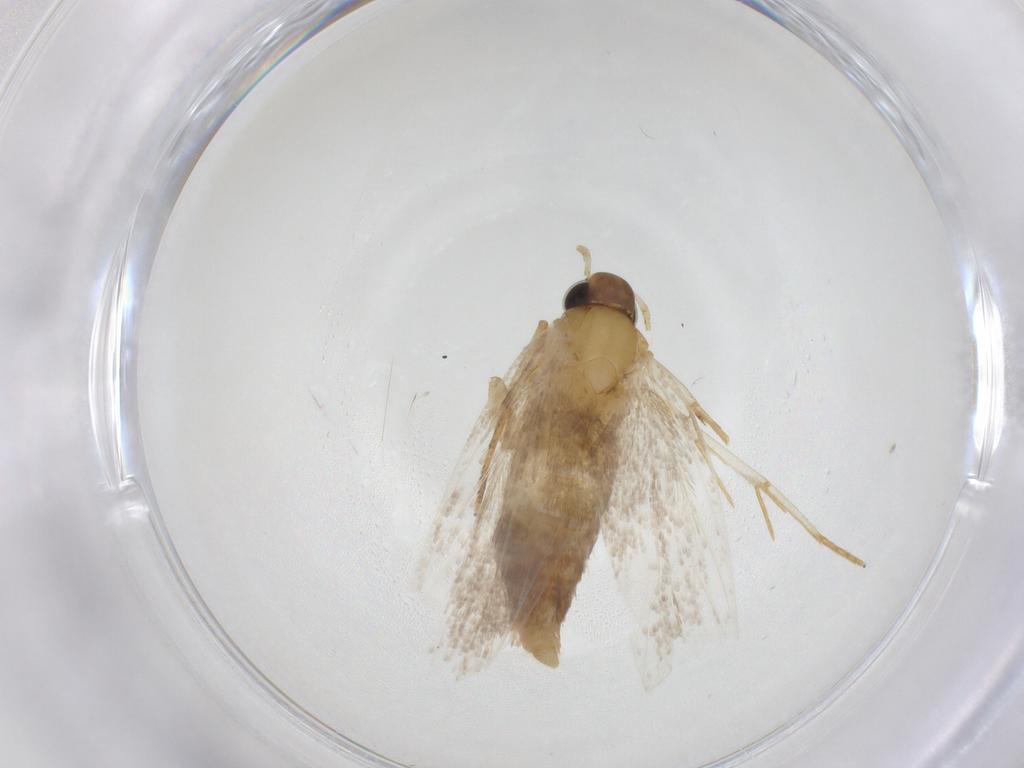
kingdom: Animalia
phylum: Arthropoda
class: Insecta
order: Lepidoptera
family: Oecophoridae
